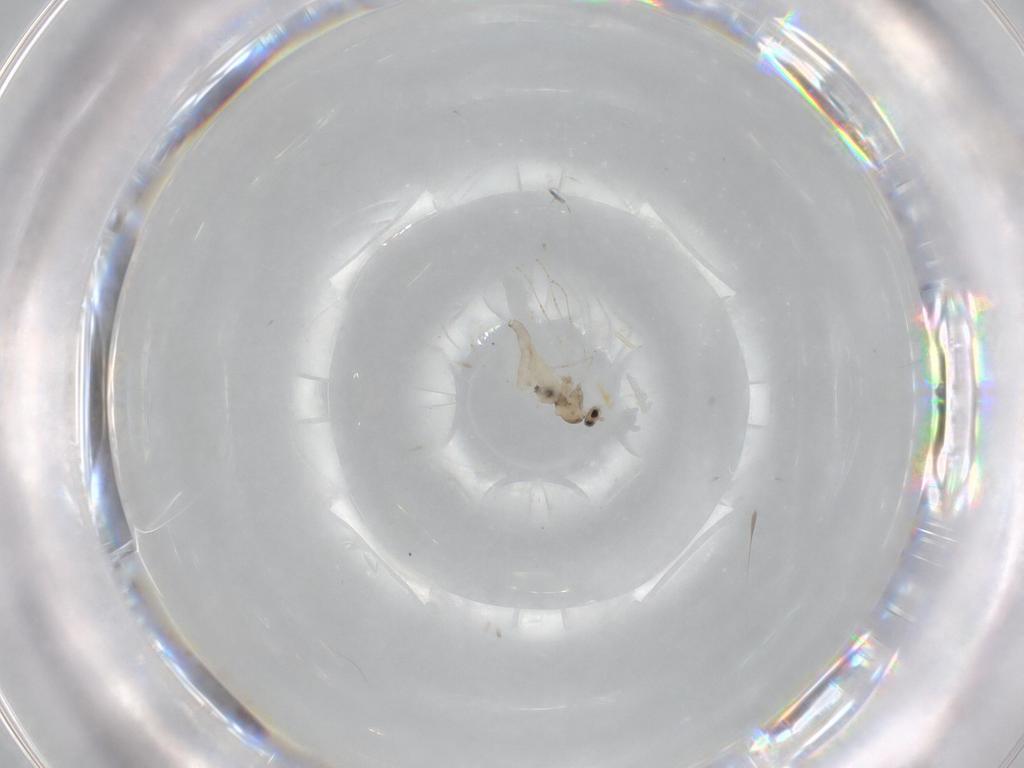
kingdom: Animalia
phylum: Arthropoda
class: Insecta
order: Diptera
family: Cecidomyiidae
